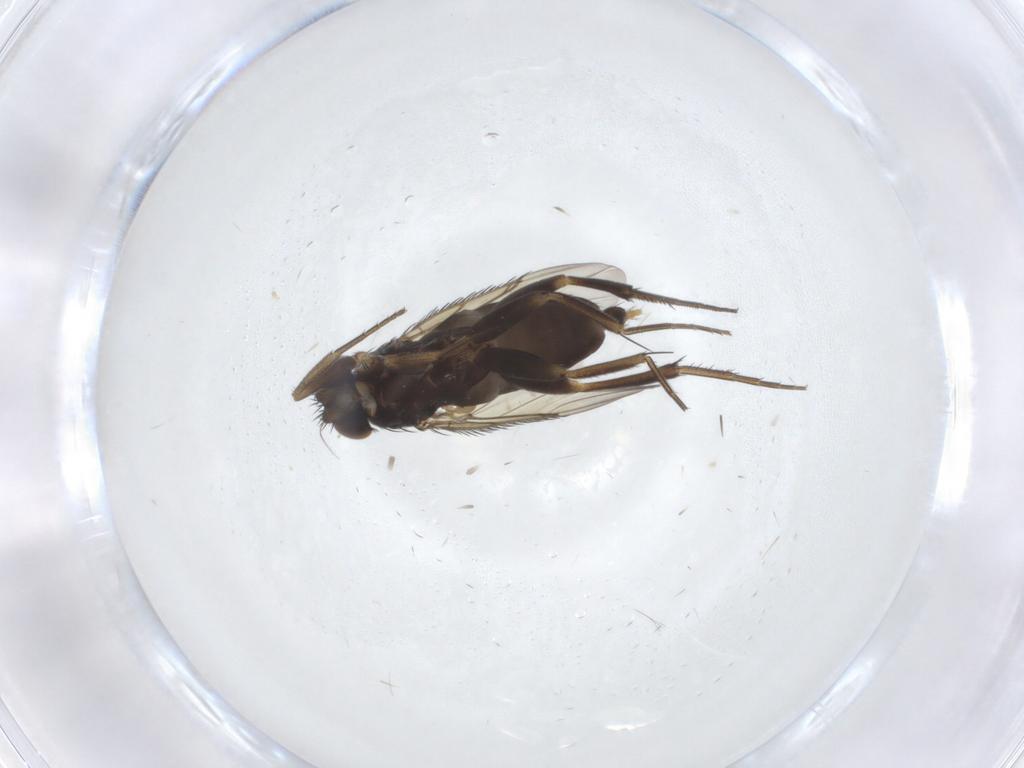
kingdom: Animalia
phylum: Arthropoda
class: Insecta
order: Diptera
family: Phoridae
